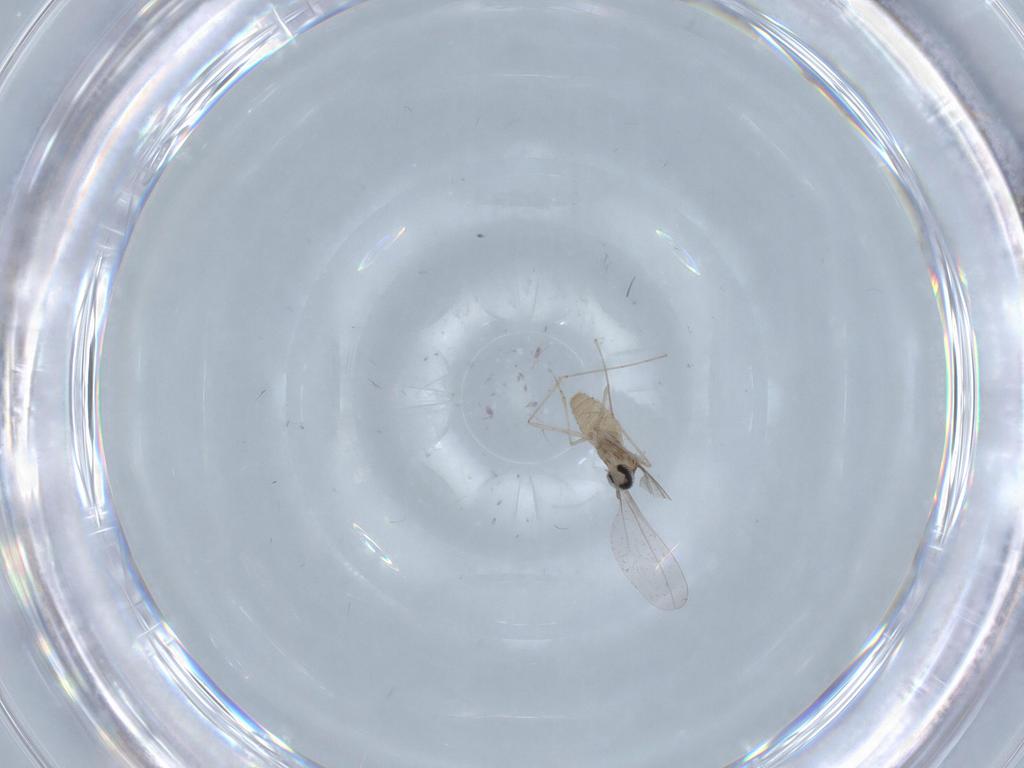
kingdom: Animalia
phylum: Arthropoda
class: Insecta
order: Diptera
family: Cecidomyiidae
